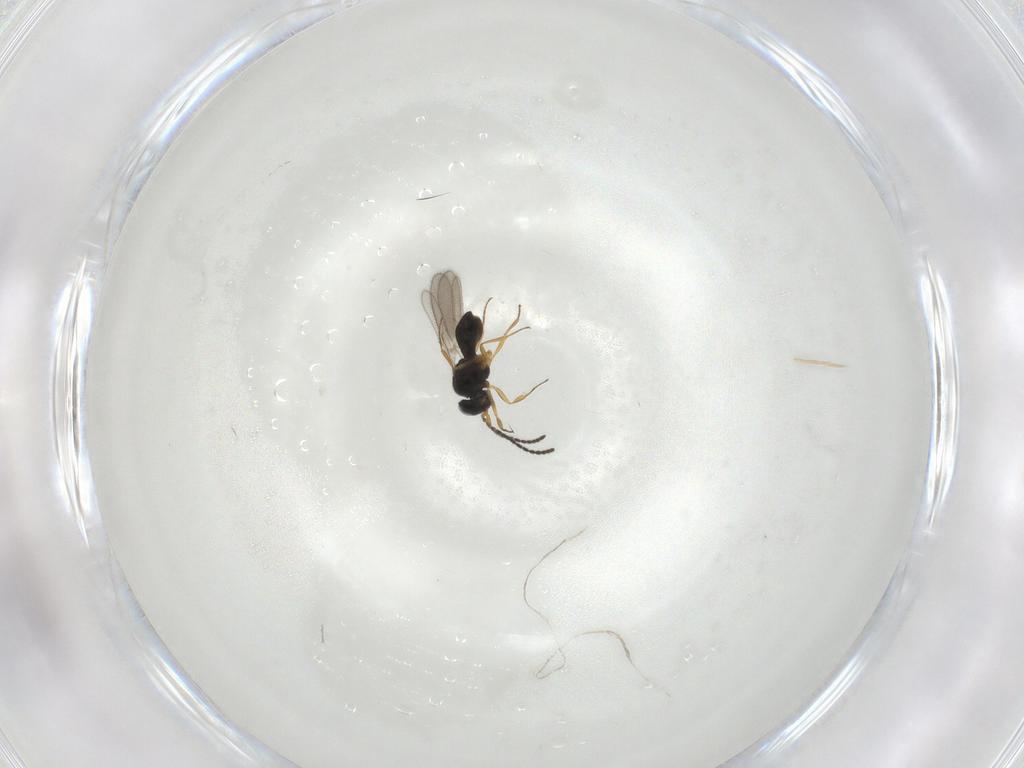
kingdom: Animalia
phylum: Arthropoda
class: Insecta
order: Hymenoptera
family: Scelionidae
